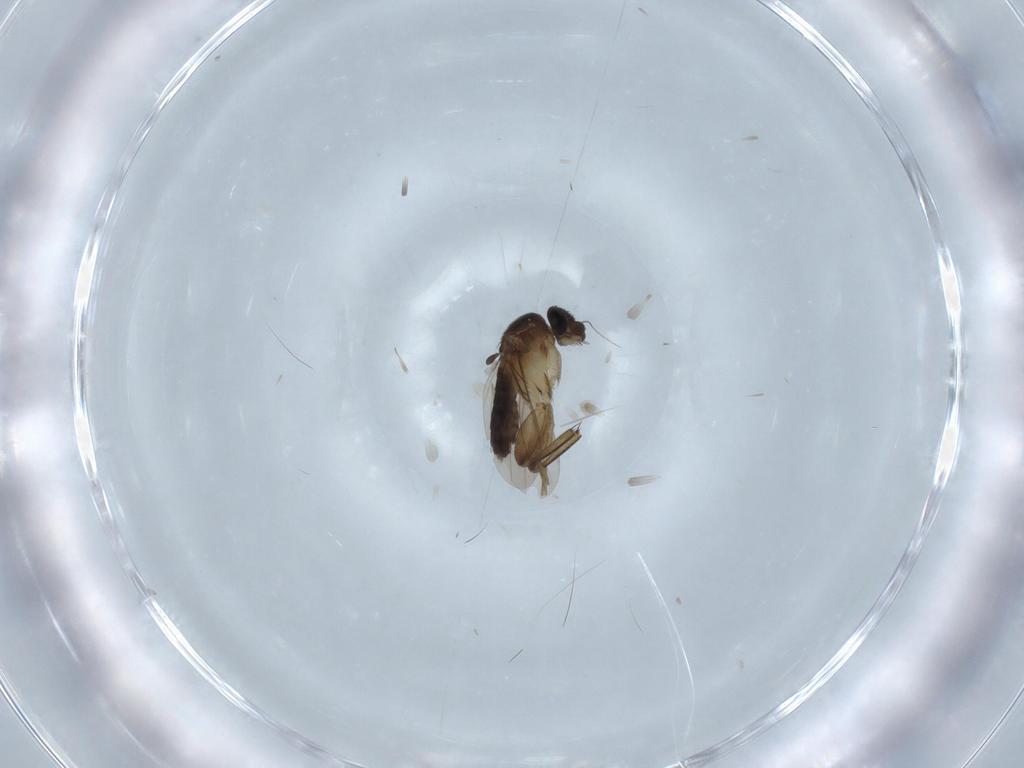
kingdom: Animalia
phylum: Arthropoda
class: Insecta
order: Diptera
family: Phoridae
